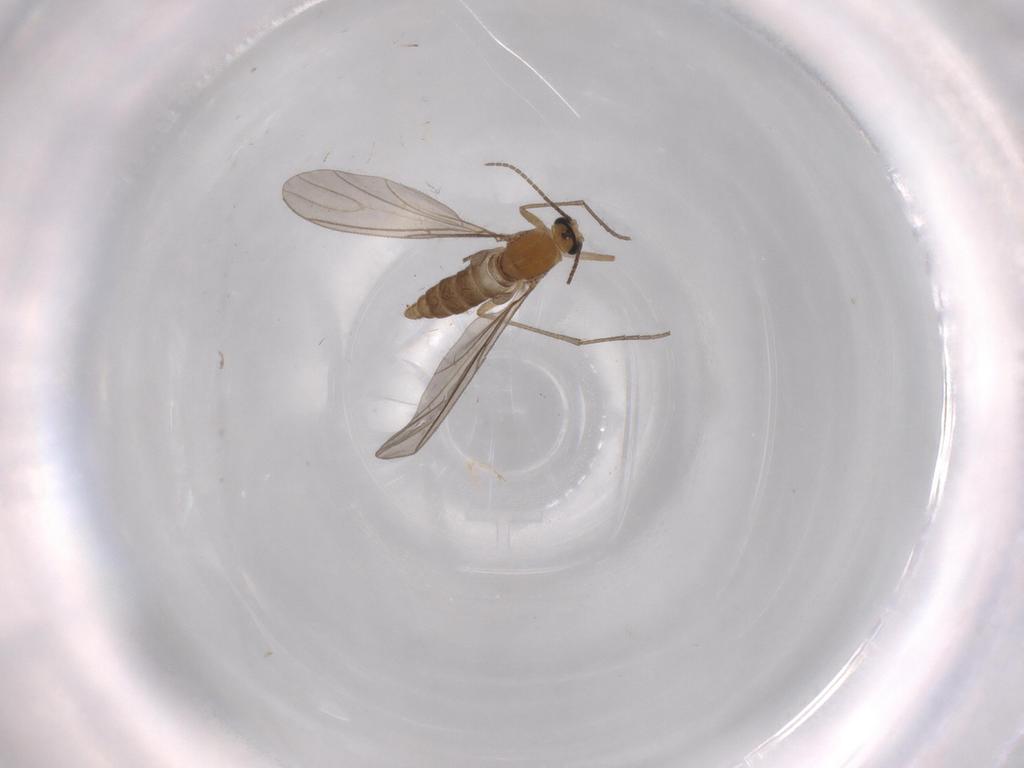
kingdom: Animalia
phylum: Arthropoda
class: Insecta
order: Diptera
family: Sciaridae
